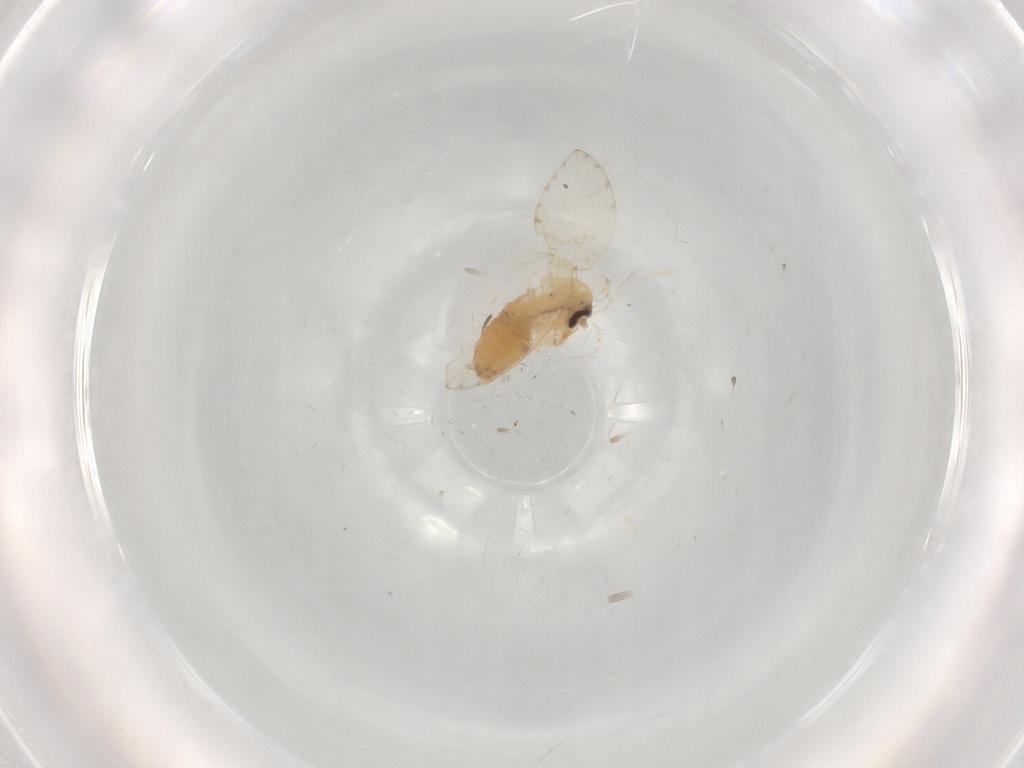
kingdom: Animalia
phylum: Arthropoda
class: Insecta
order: Diptera
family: Psychodidae
